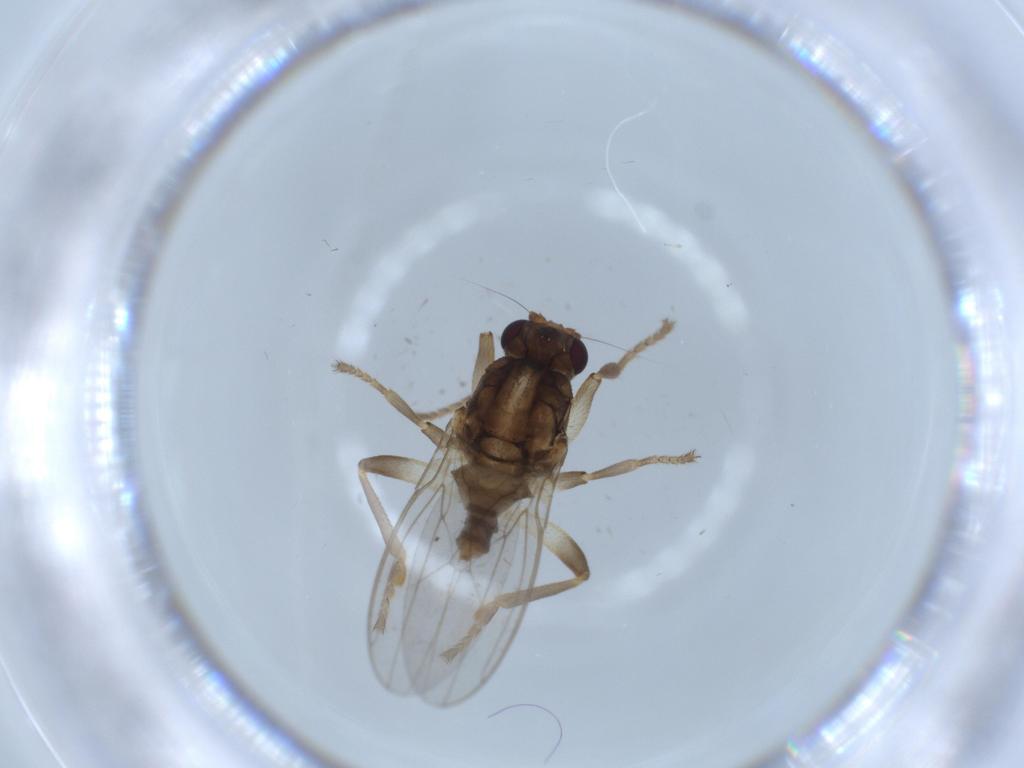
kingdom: Animalia
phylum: Arthropoda
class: Insecta
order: Diptera
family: Sphaeroceridae
